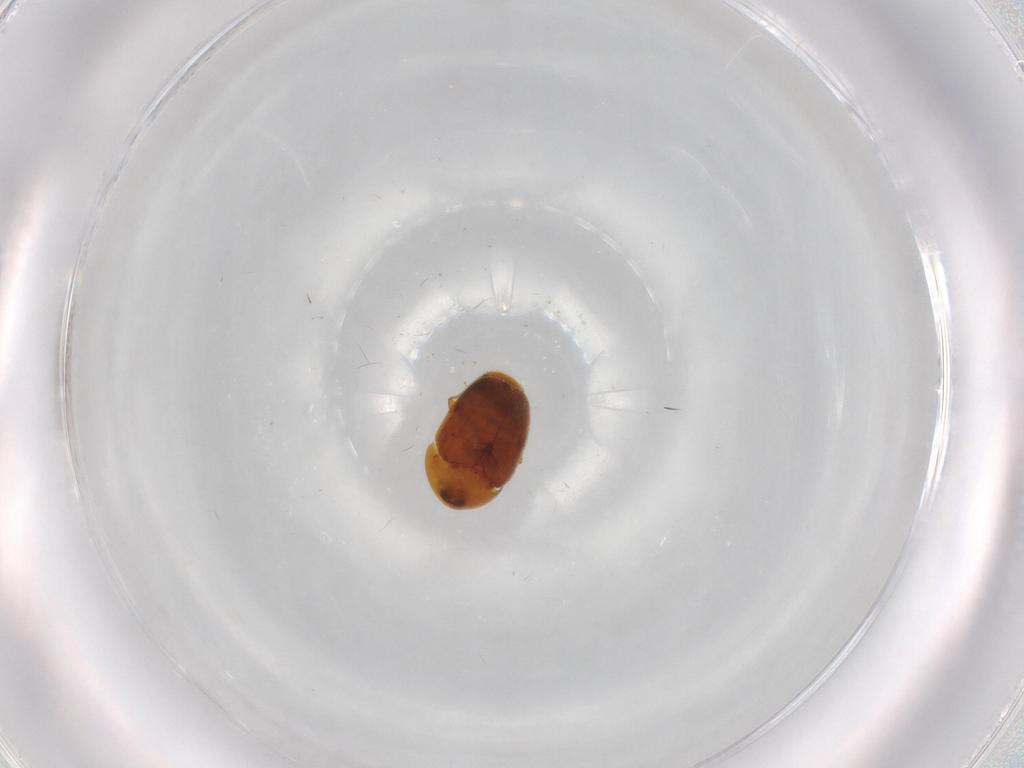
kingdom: Animalia
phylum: Arthropoda
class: Insecta
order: Coleoptera
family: Corylophidae
